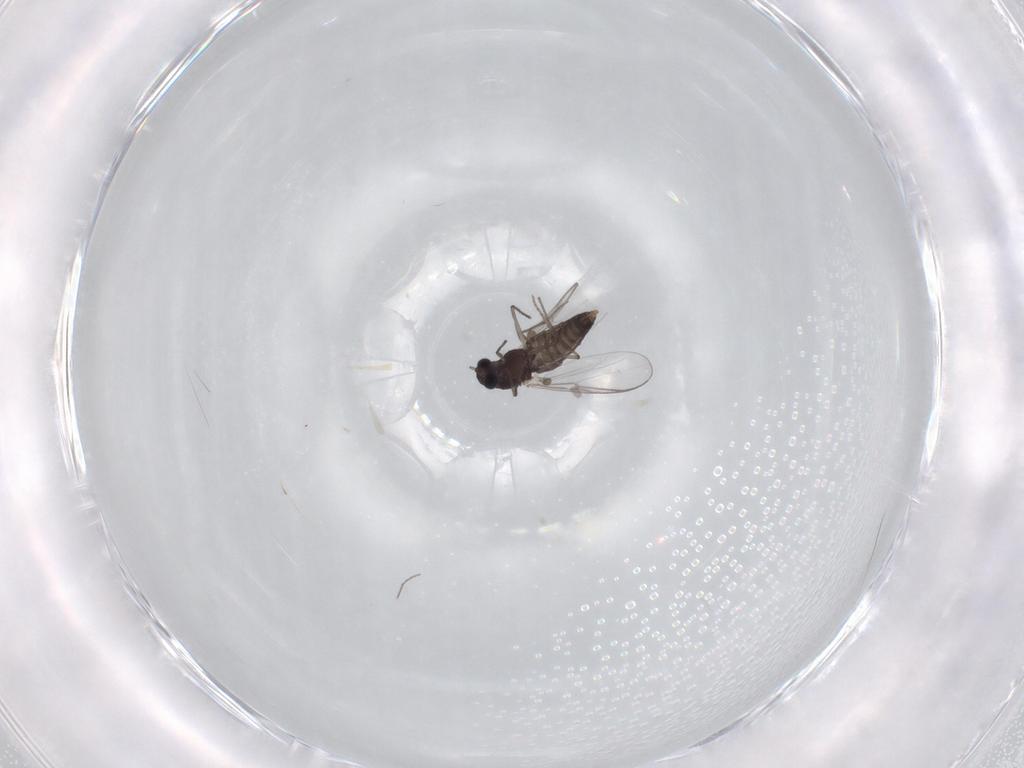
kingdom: Animalia
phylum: Arthropoda
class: Insecta
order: Diptera
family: Chironomidae
